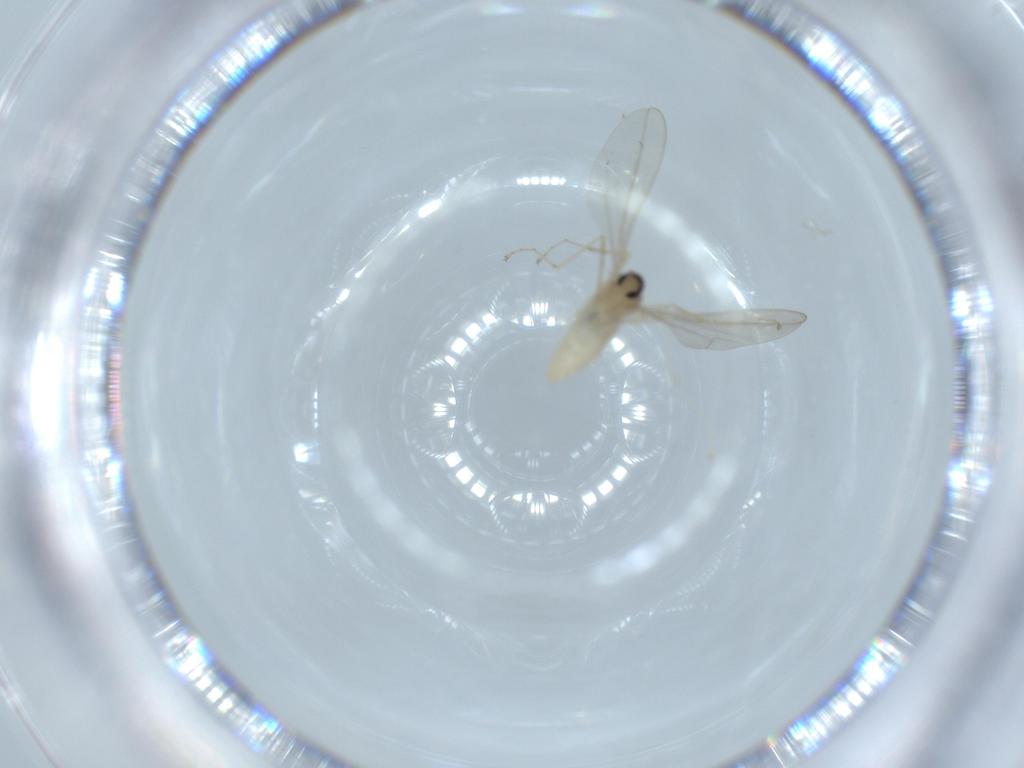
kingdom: Animalia
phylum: Arthropoda
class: Insecta
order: Diptera
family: Cecidomyiidae
